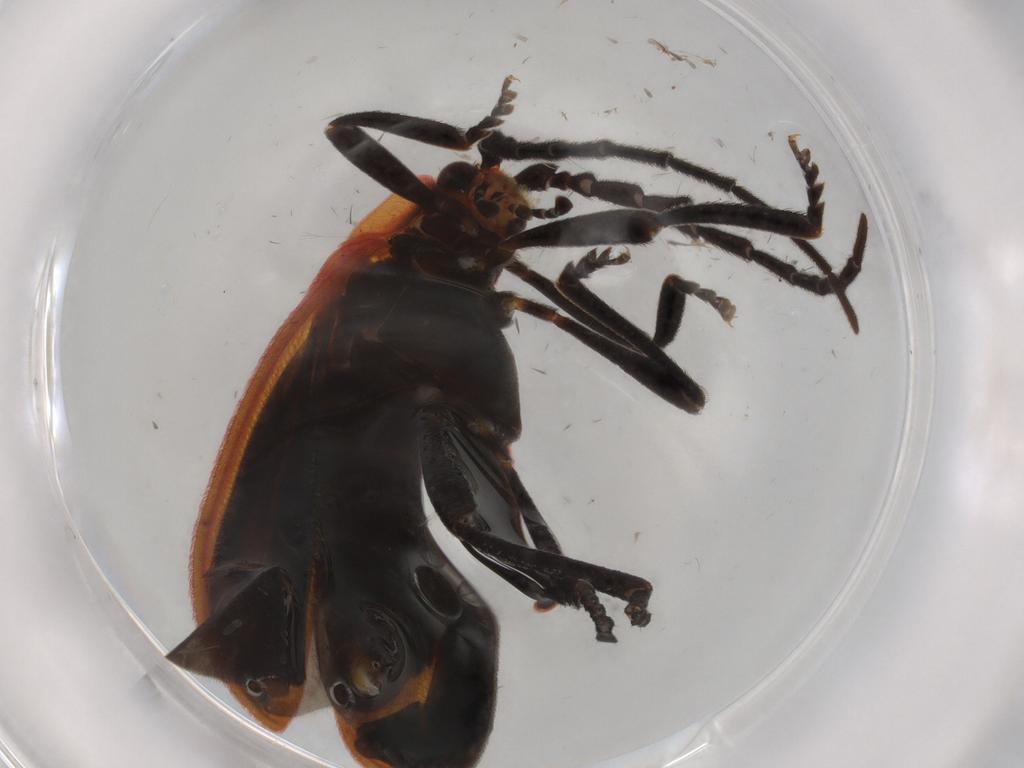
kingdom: Animalia
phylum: Arthropoda
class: Insecta
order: Coleoptera
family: Lycidae
